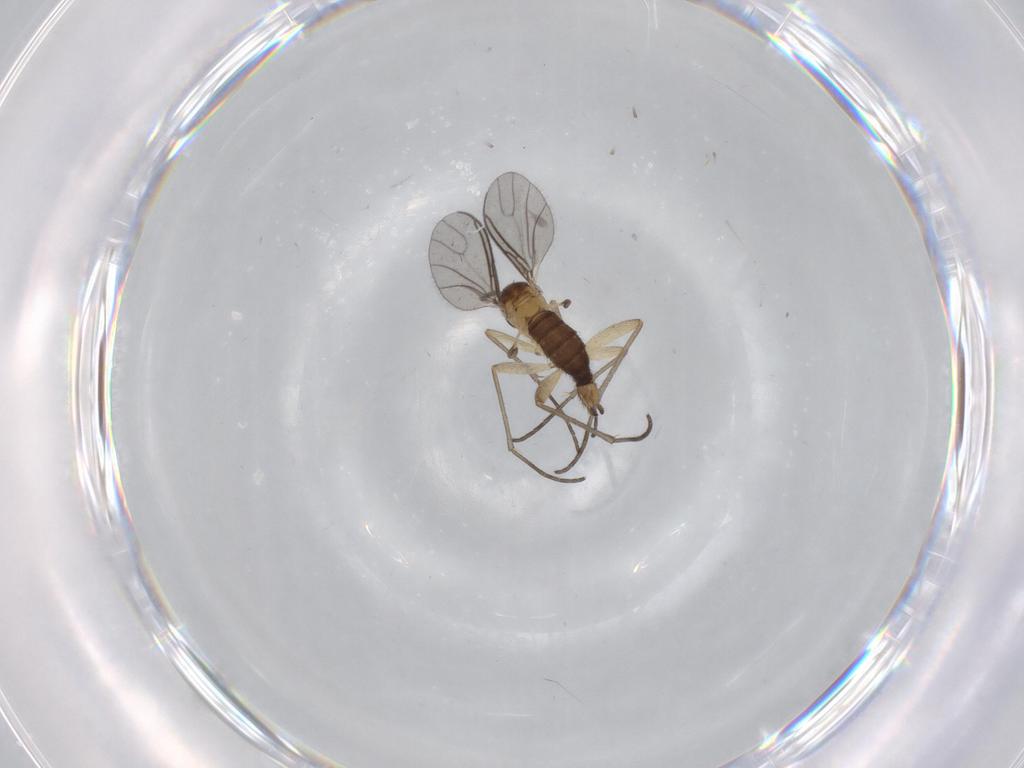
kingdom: Animalia
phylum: Arthropoda
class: Insecta
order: Diptera
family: Sciaridae
